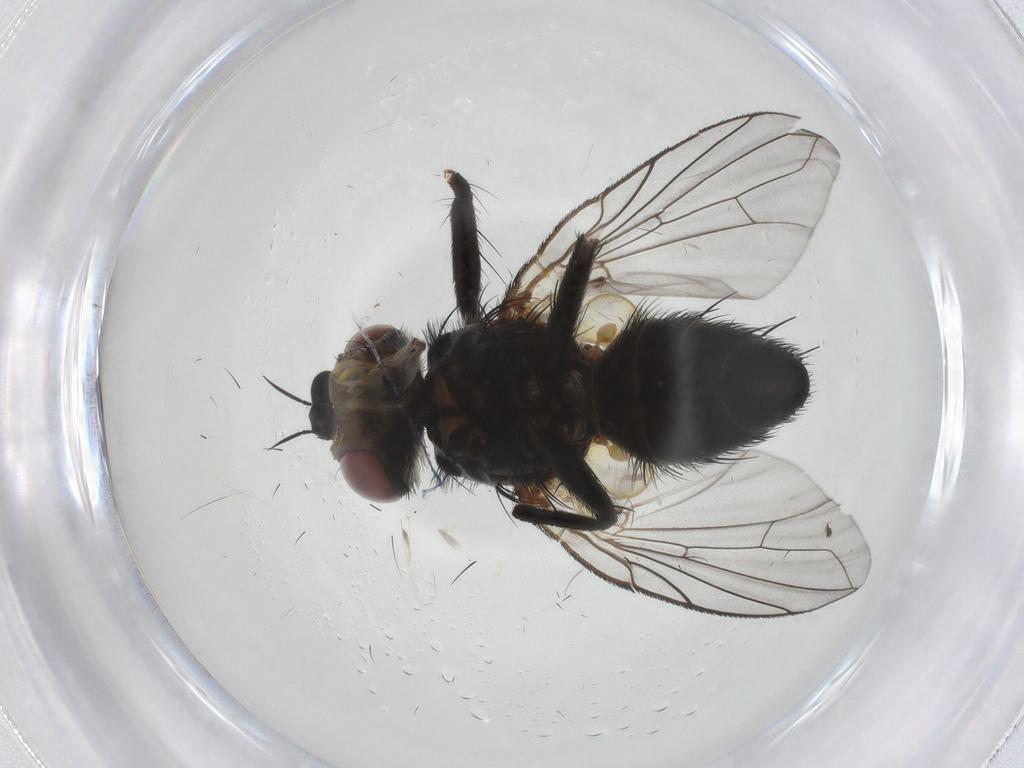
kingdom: Animalia
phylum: Arthropoda
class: Insecta
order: Diptera
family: Tachinidae
